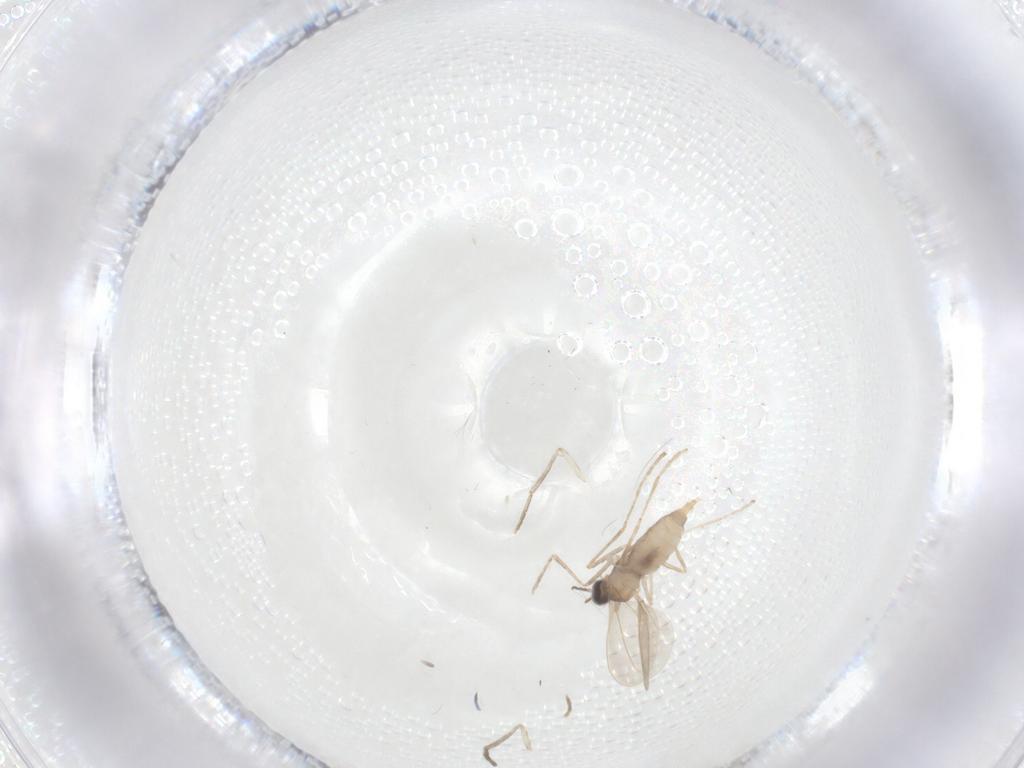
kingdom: Animalia
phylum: Arthropoda
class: Insecta
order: Diptera
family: Cecidomyiidae
